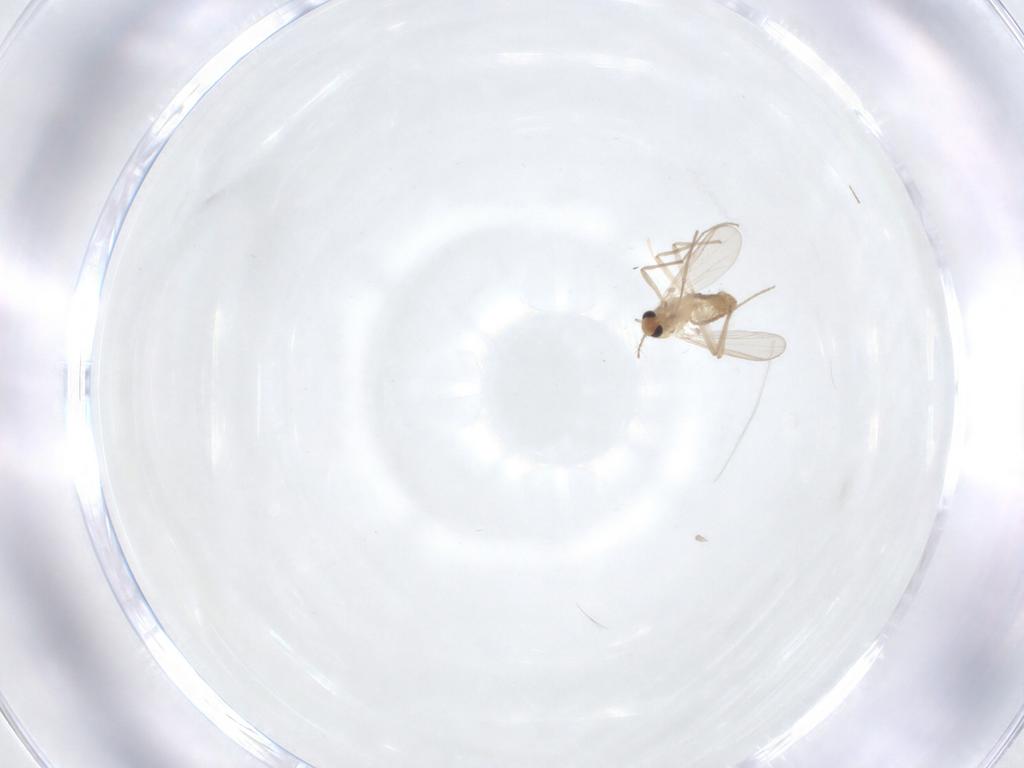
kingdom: Animalia
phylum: Arthropoda
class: Insecta
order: Diptera
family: Chironomidae
